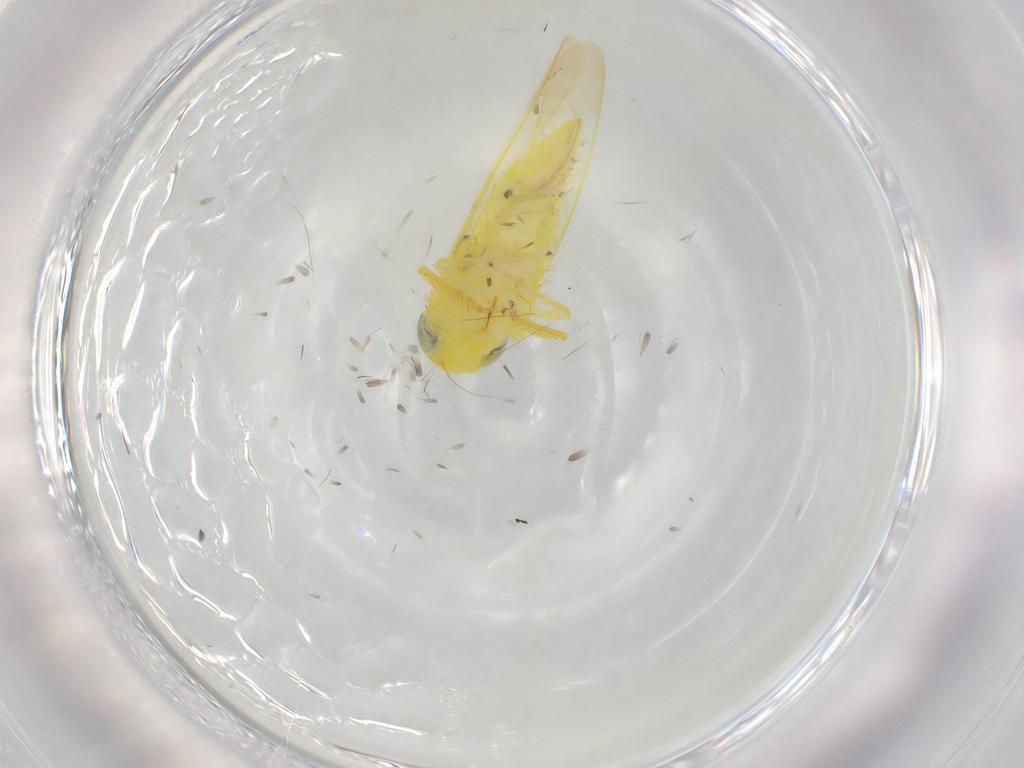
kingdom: Animalia
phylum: Arthropoda
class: Insecta
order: Diptera
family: Dolichopodidae
